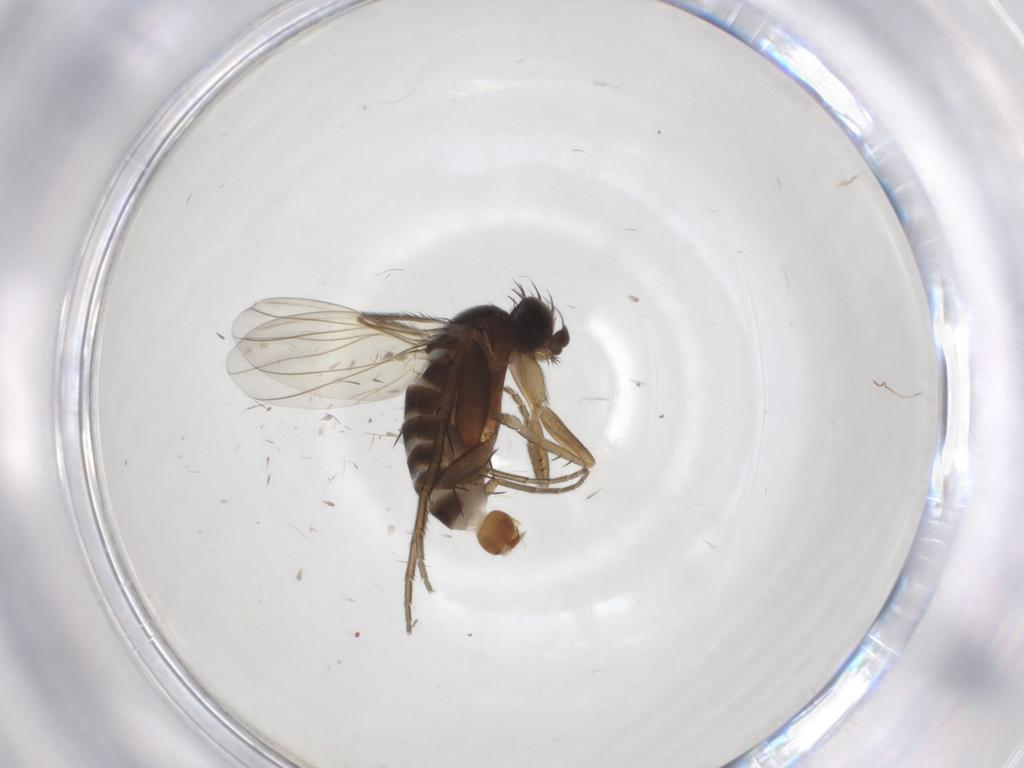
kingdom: Animalia
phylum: Arthropoda
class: Insecta
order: Diptera
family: Phoridae
